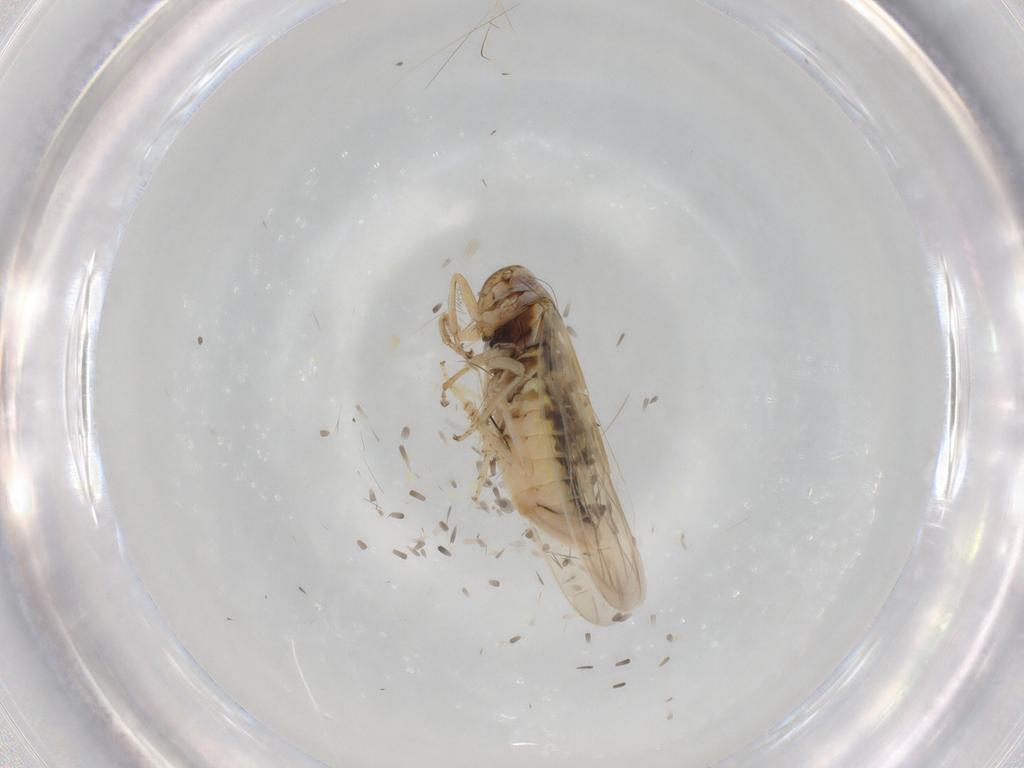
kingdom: Animalia
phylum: Arthropoda
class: Insecta
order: Hemiptera
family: Cicadellidae
